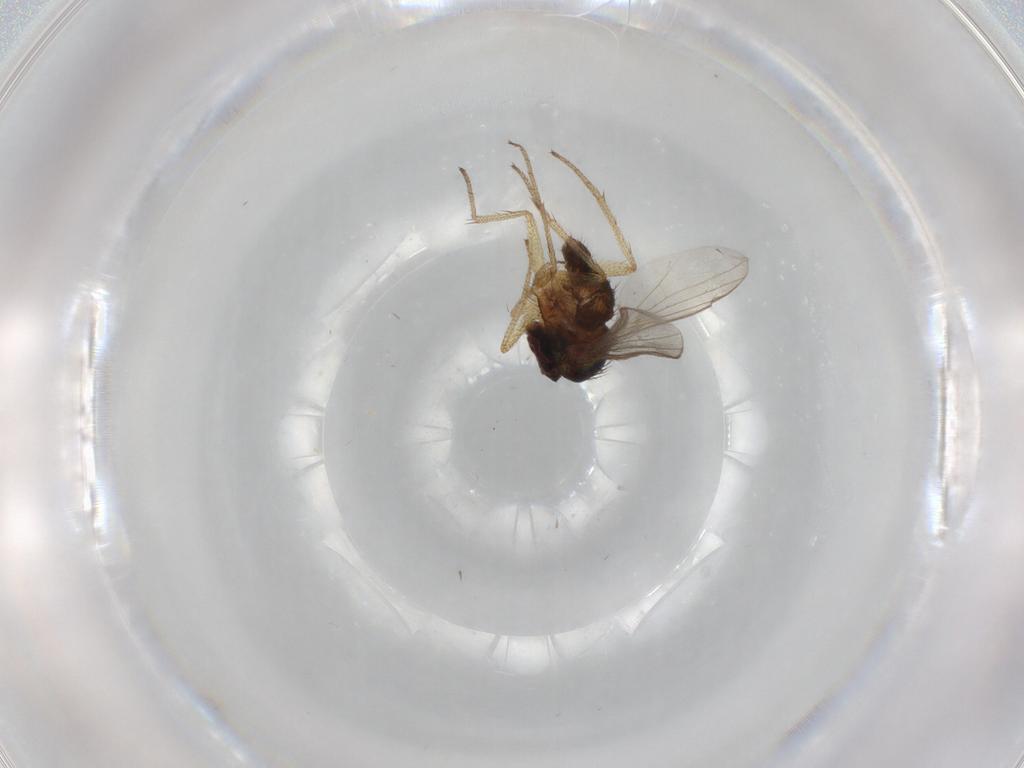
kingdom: Animalia
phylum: Arthropoda
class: Insecta
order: Diptera
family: Dolichopodidae
